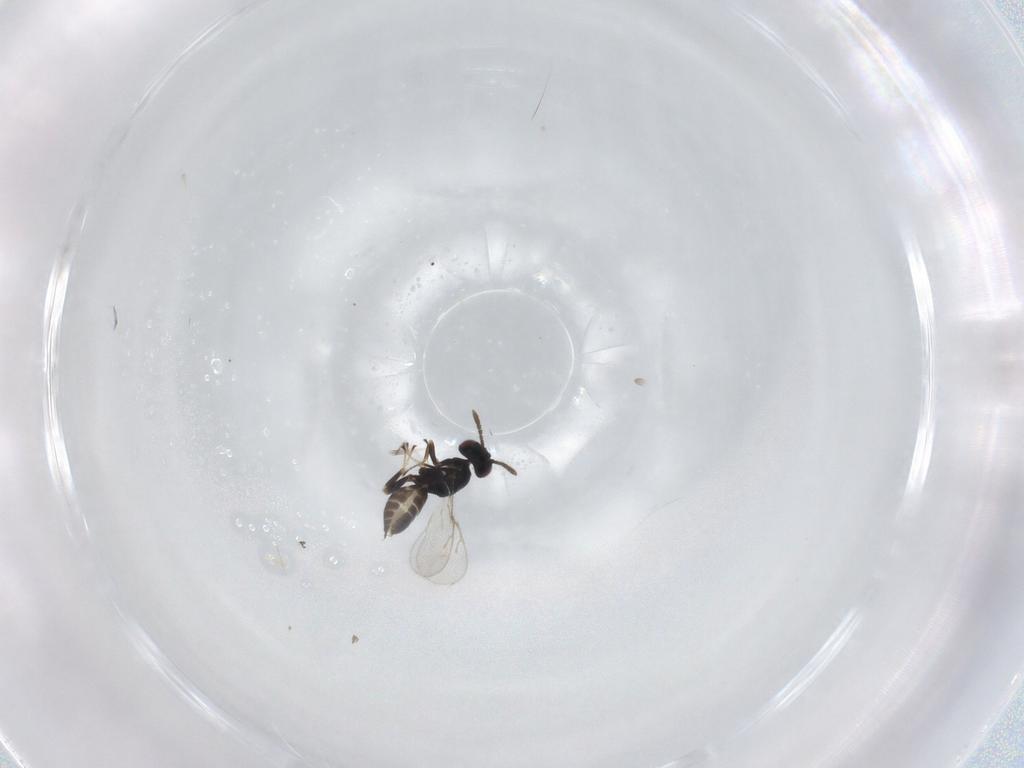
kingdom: Animalia
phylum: Arthropoda
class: Insecta
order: Hymenoptera
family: Pteromalidae
